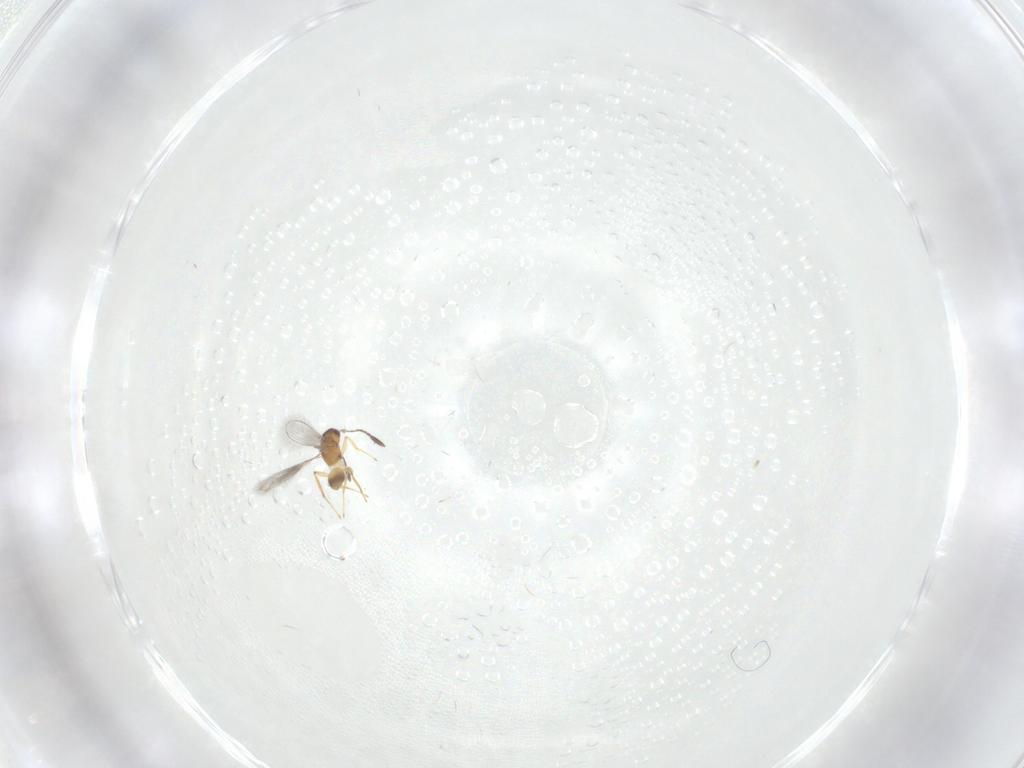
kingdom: Animalia
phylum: Arthropoda
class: Insecta
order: Hymenoptera
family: Mymaridae
